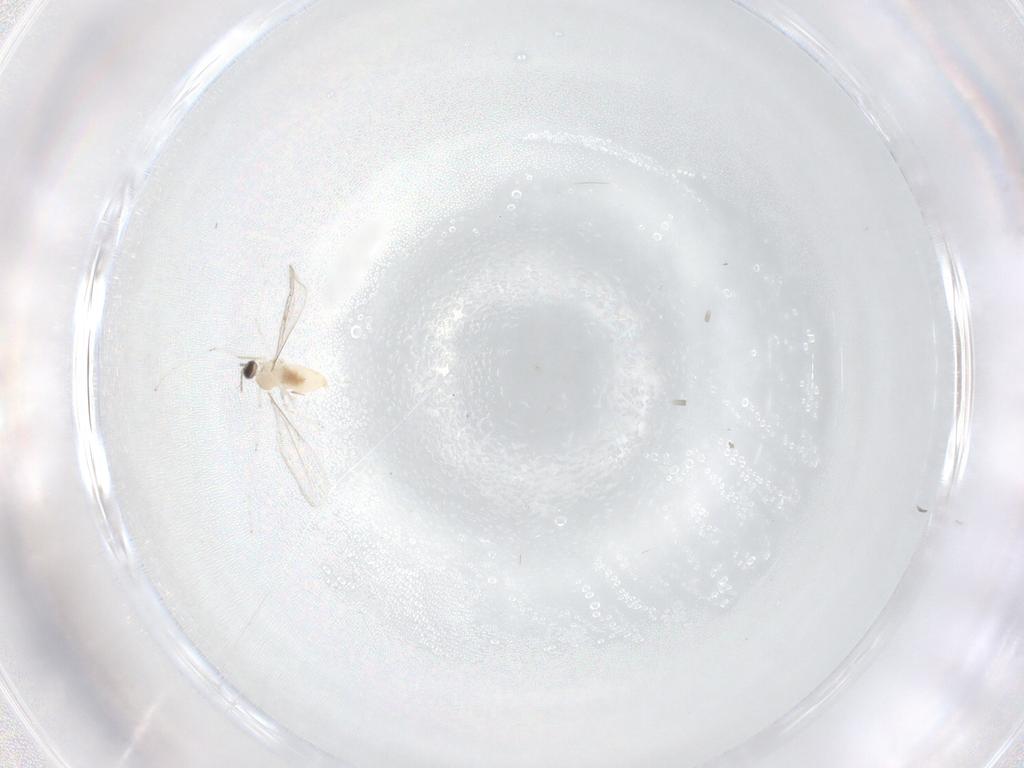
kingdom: Animalia
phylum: Arthropoda
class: Insecta
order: Diptera
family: Cecidomyiidae
